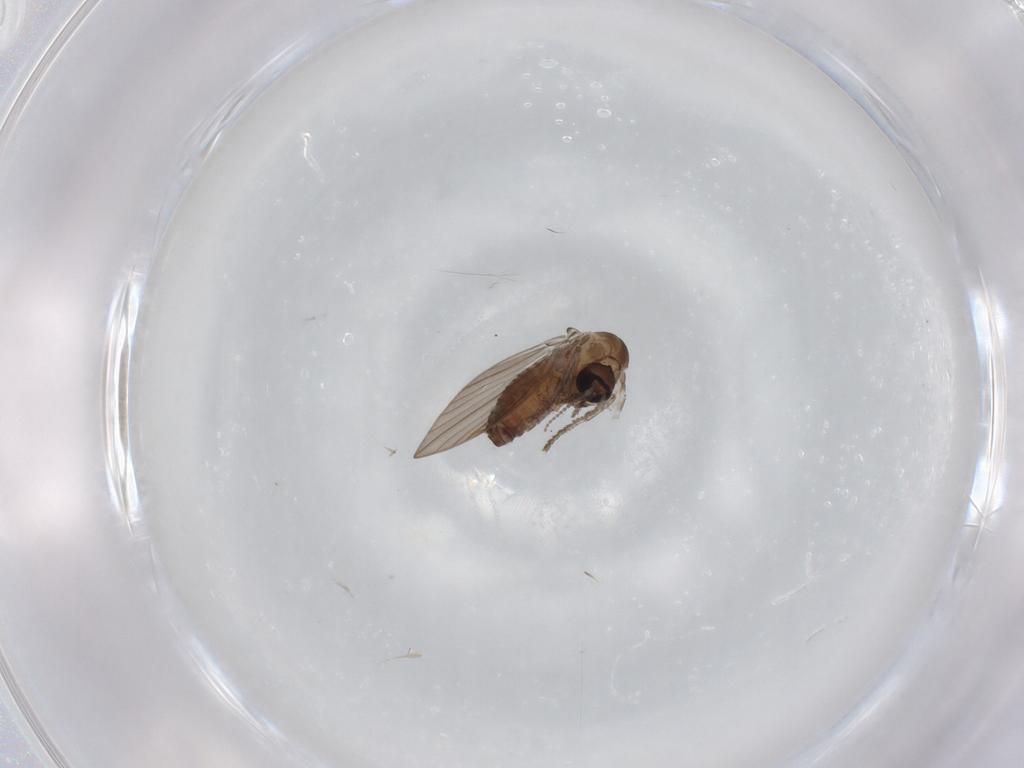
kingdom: Animalia
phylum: Arthropoda
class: Insecta
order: Diptera
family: Psychodidae
